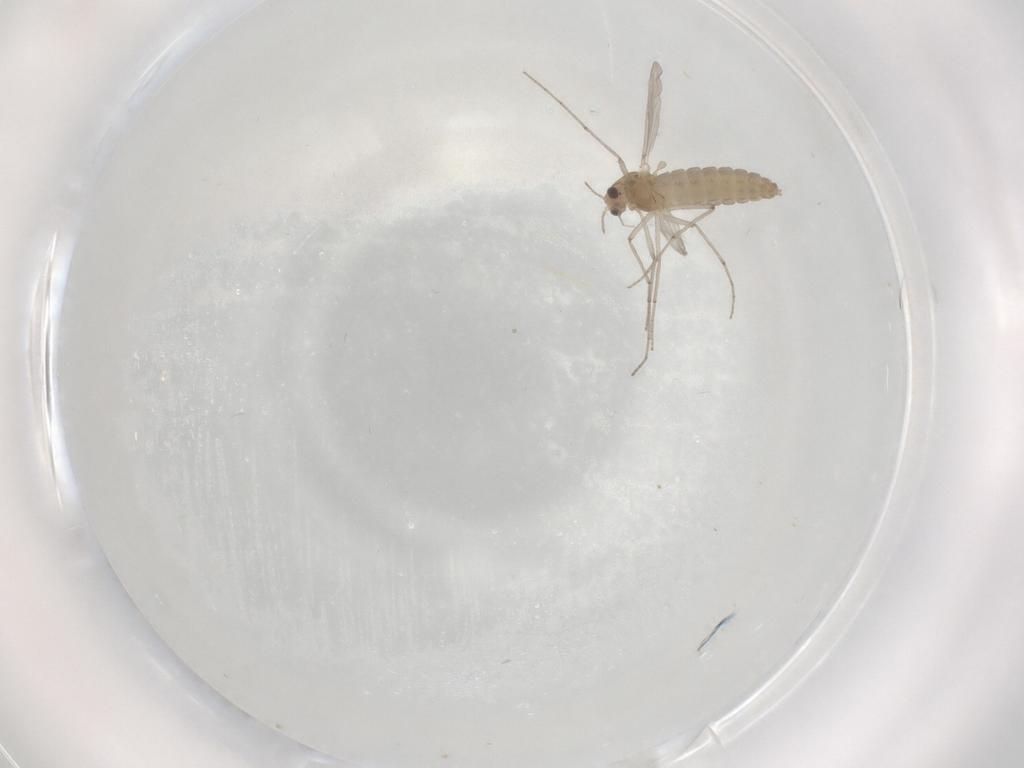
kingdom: Animalia
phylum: Arthropoda
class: Insecta
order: Diptera
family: Chironomidae
